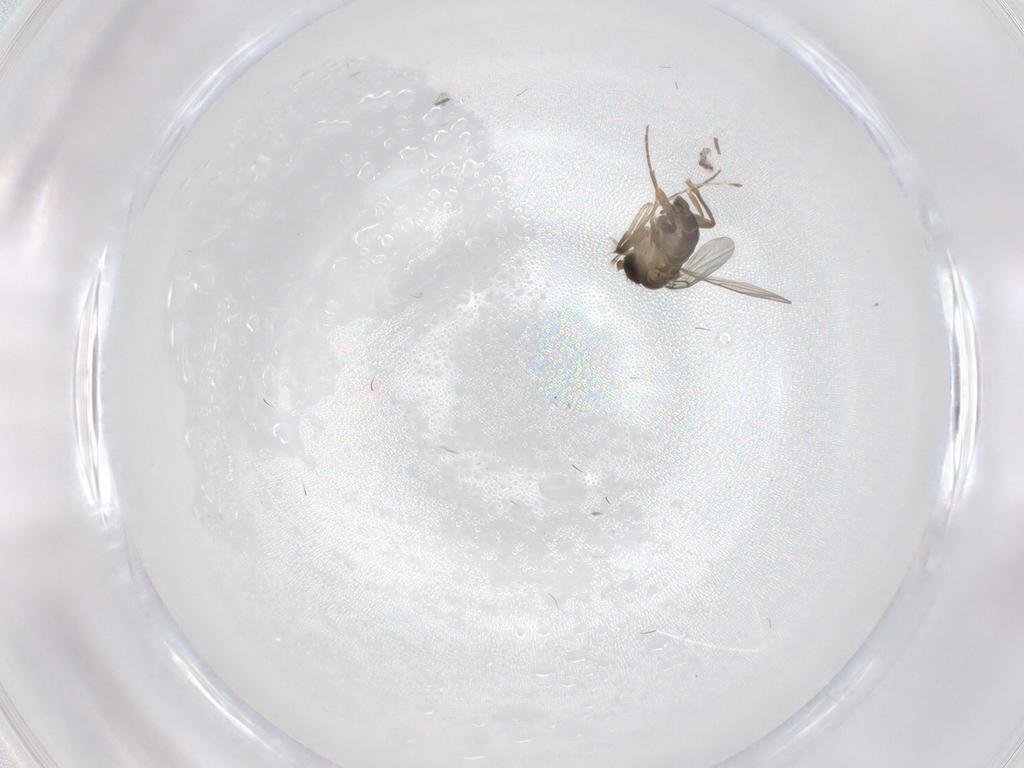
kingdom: Animalia
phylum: Arthropoda
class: Insecta
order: Diptera
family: Phoridae
